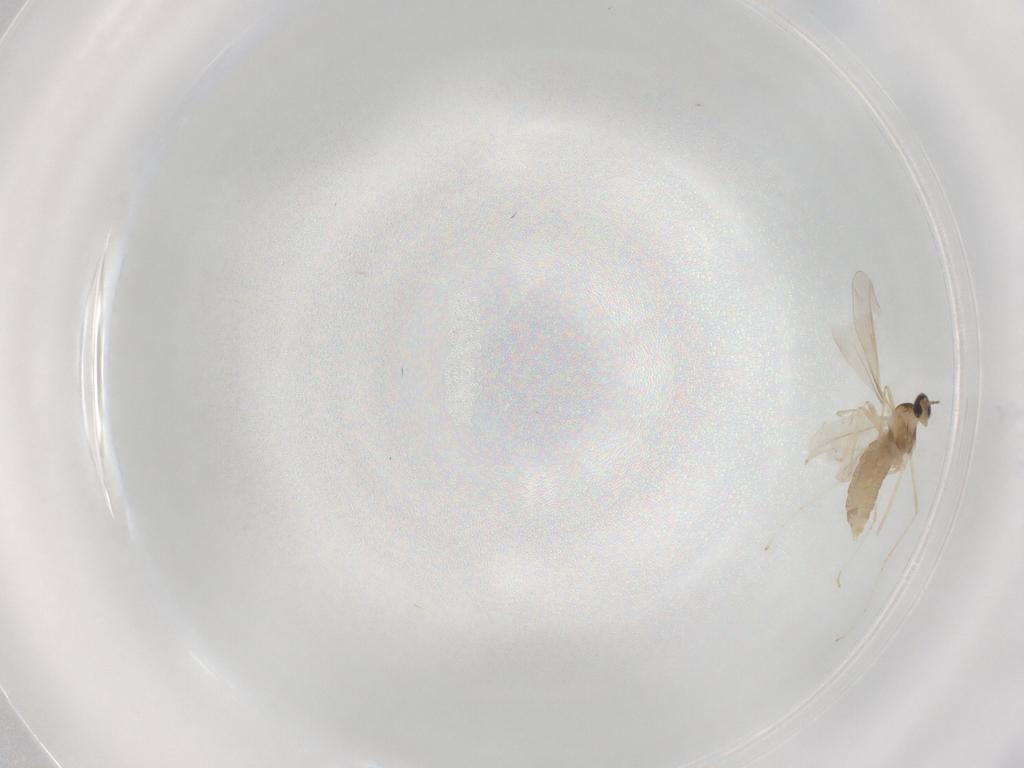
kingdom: Animalia
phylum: Arthropoda
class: Insecta
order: Diptera
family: Cecidomyiidae
